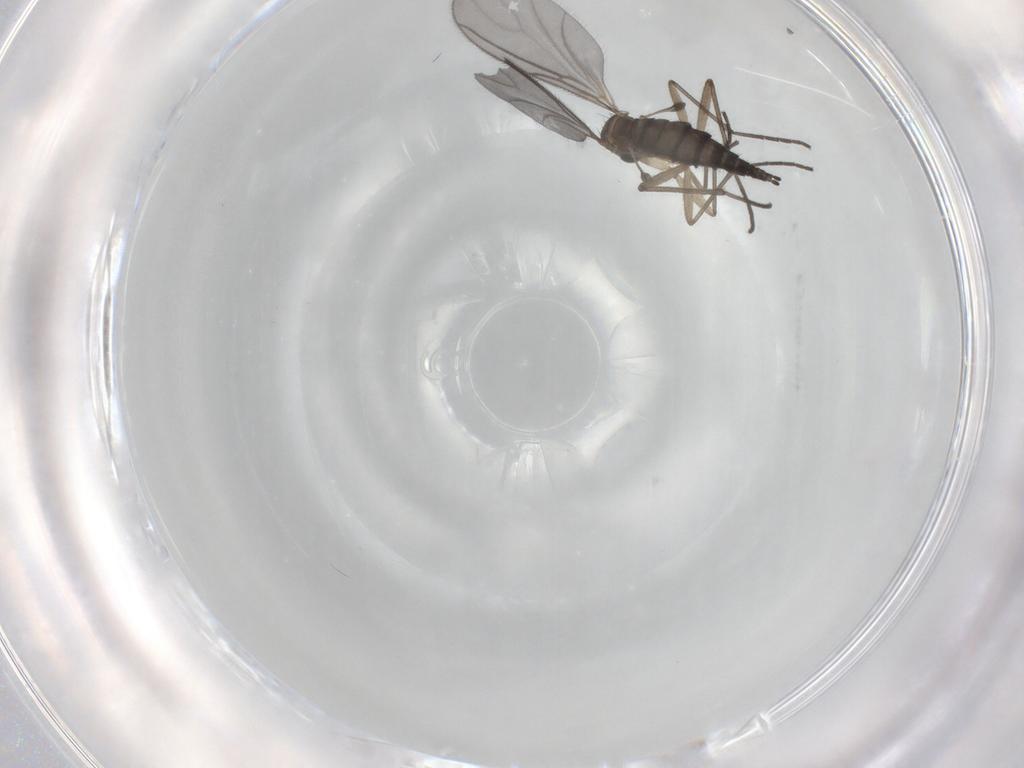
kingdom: Animalia
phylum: Arthropoda
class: Insecta
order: Diptera
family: Sciaridae
